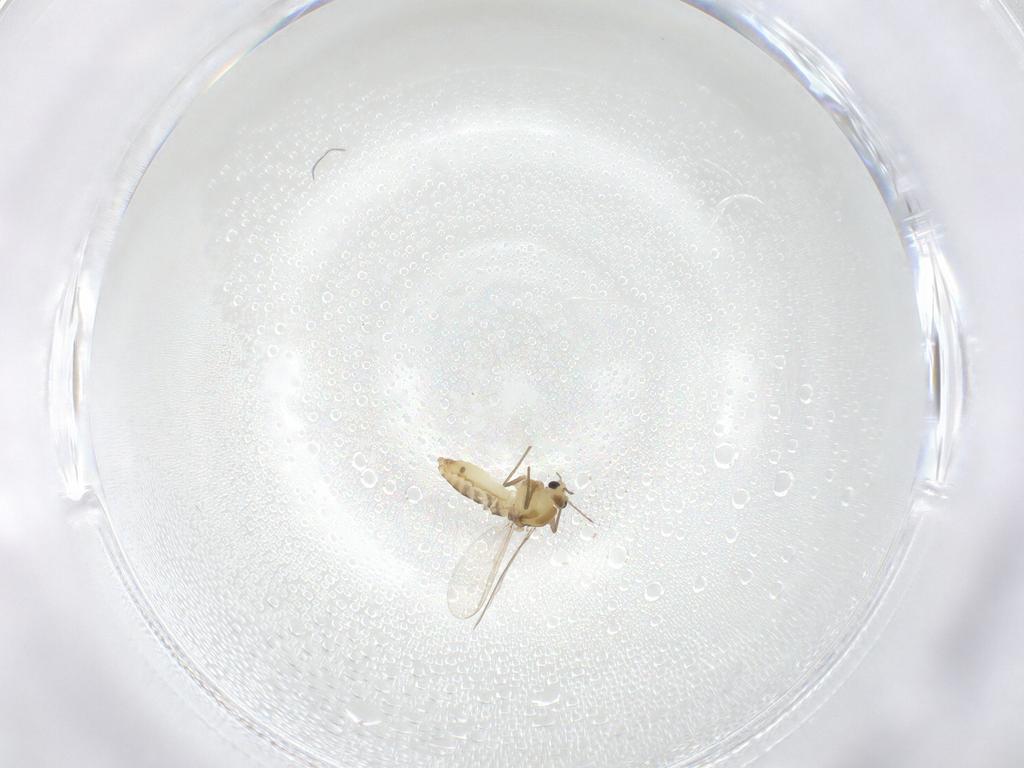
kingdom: Animalia
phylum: Arthropoda
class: Insecta
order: Diptera
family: Chironomidae
